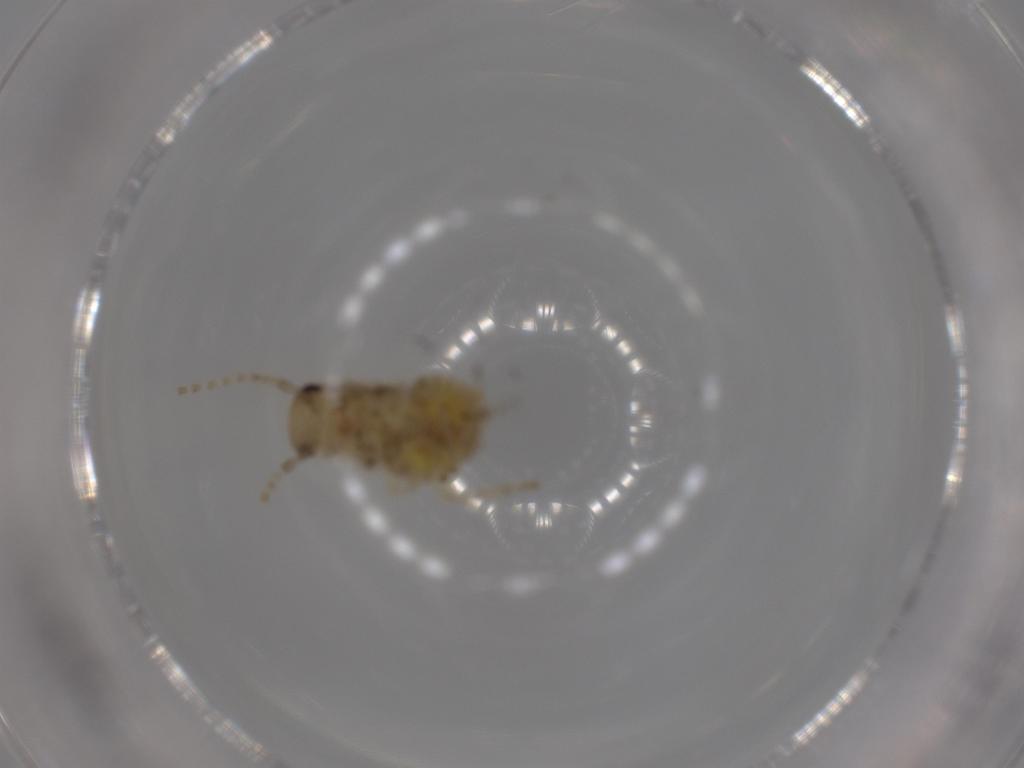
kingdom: Animalia
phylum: Arthropoda
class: Insecta
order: Blattodea
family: Ectobiidae
